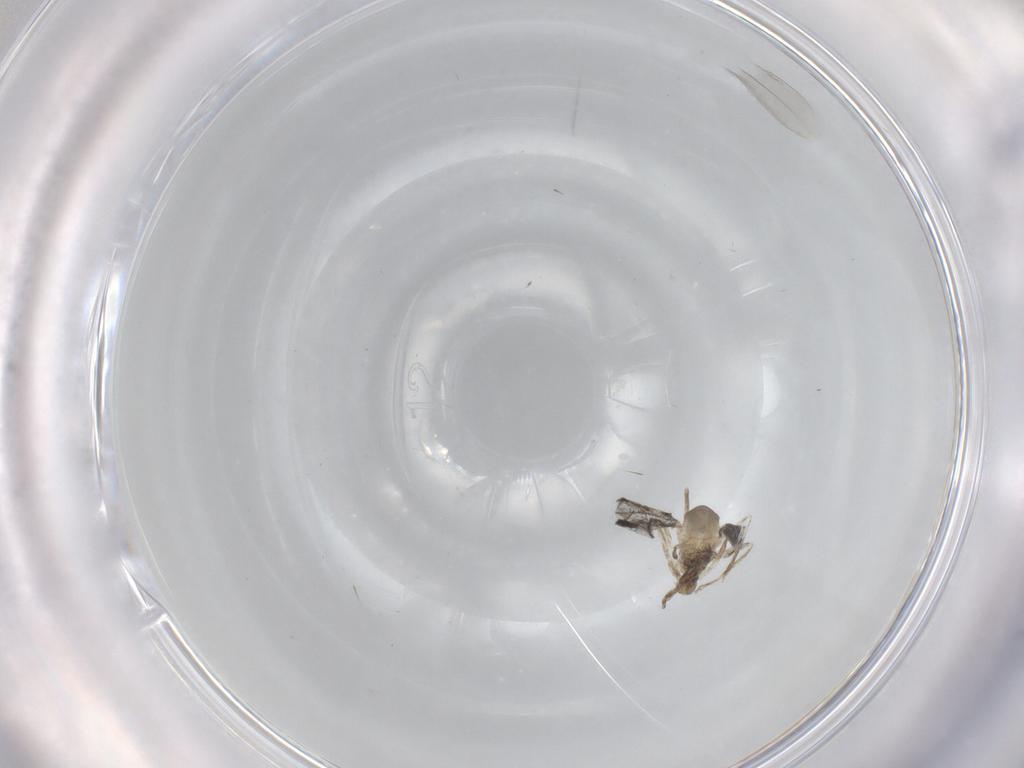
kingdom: Animalia
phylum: Arthropoda
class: Insecta
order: Diptera
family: Cecidomyiidae
